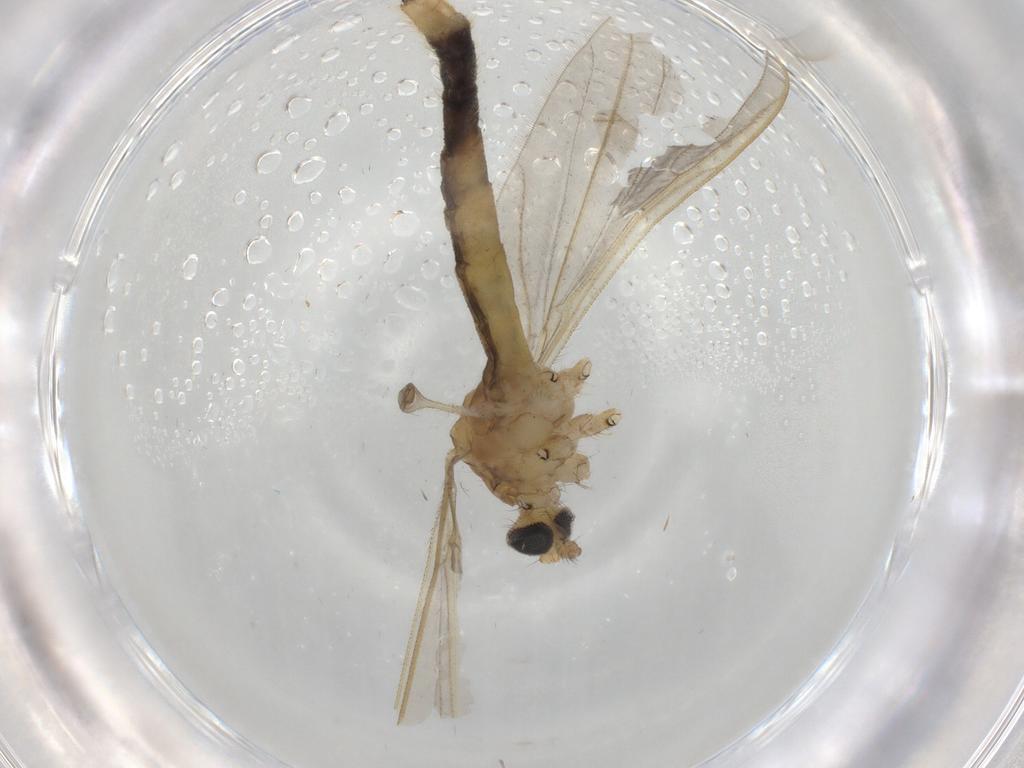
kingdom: Animalia
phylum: Arthropoda
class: Insecta
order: Diptera
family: Cecidomyiidae
